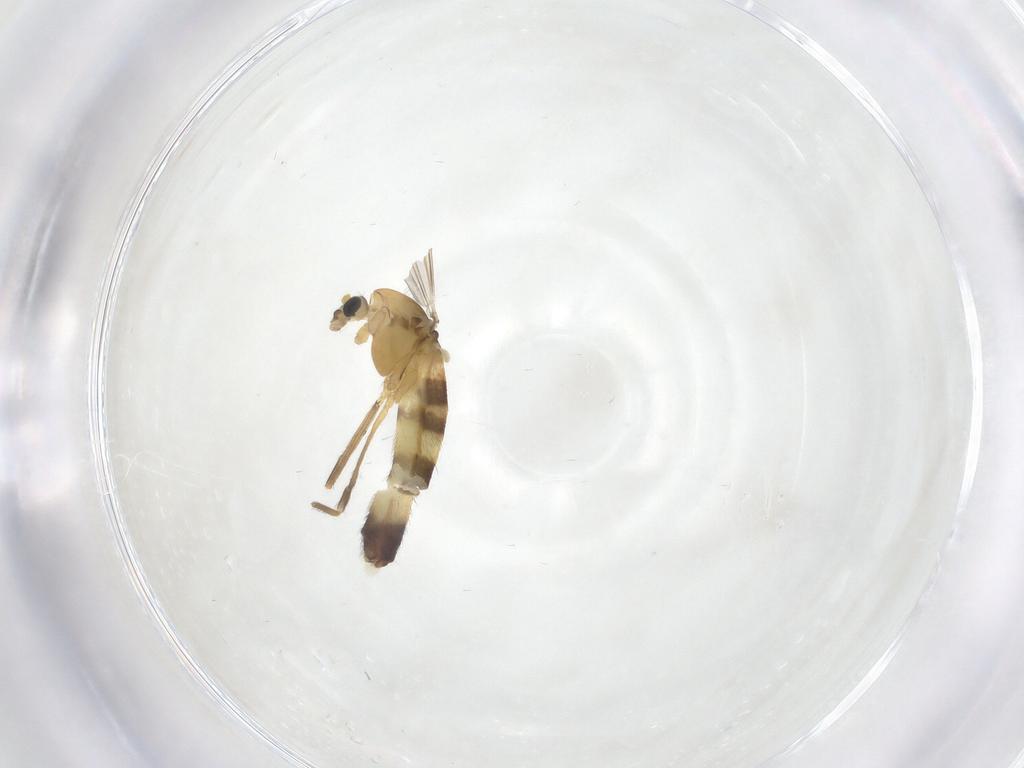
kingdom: Animalia
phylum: Arthropoda
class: Insecta
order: Diptera
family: Chironomidae
